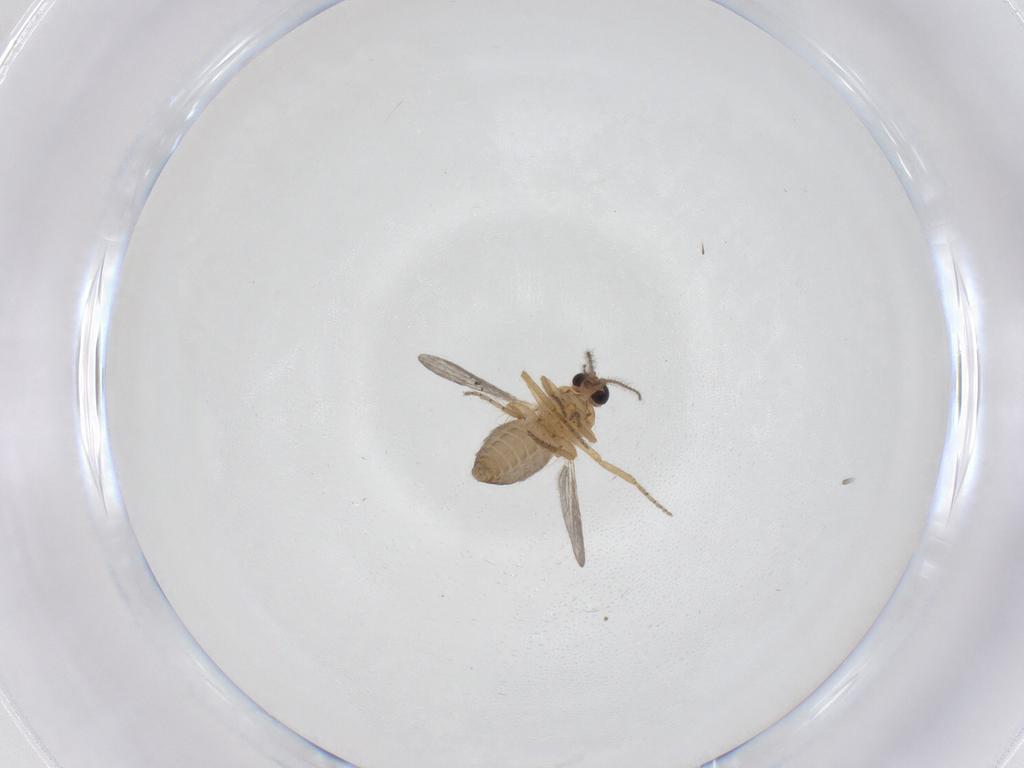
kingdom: Animalia
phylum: Arthropoda
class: Insecta
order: Diptera
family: Ceratopogonidae
